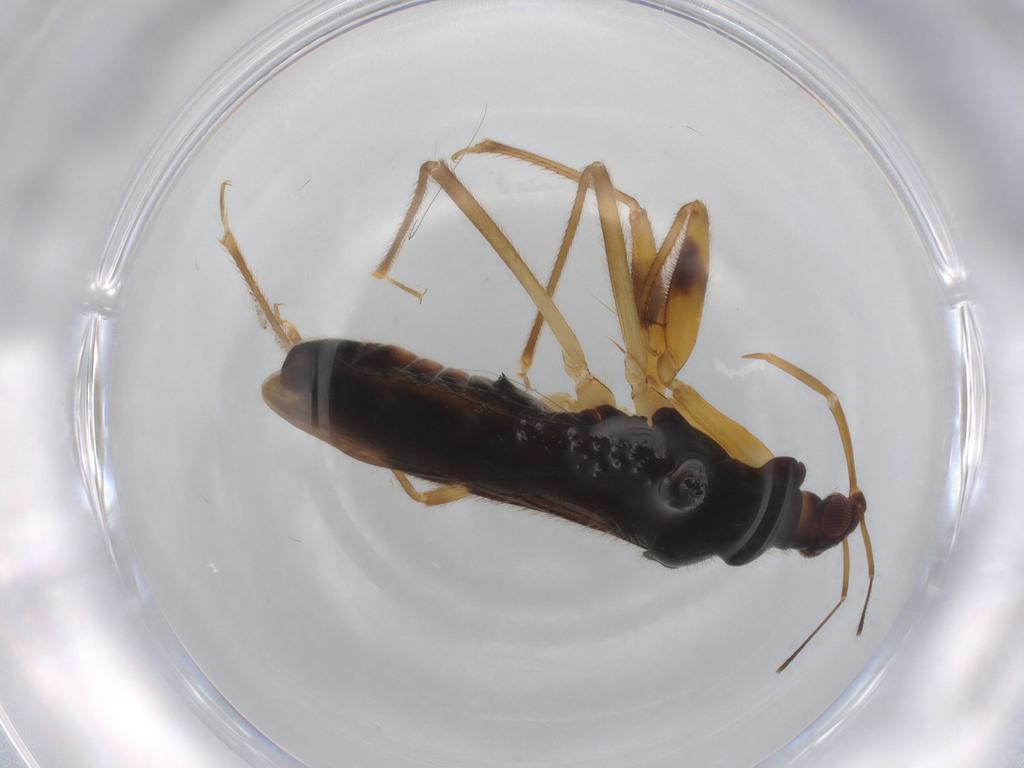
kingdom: Animalia
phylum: Arthropoda
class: Insecta
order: Hemiptera
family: Nabidae
